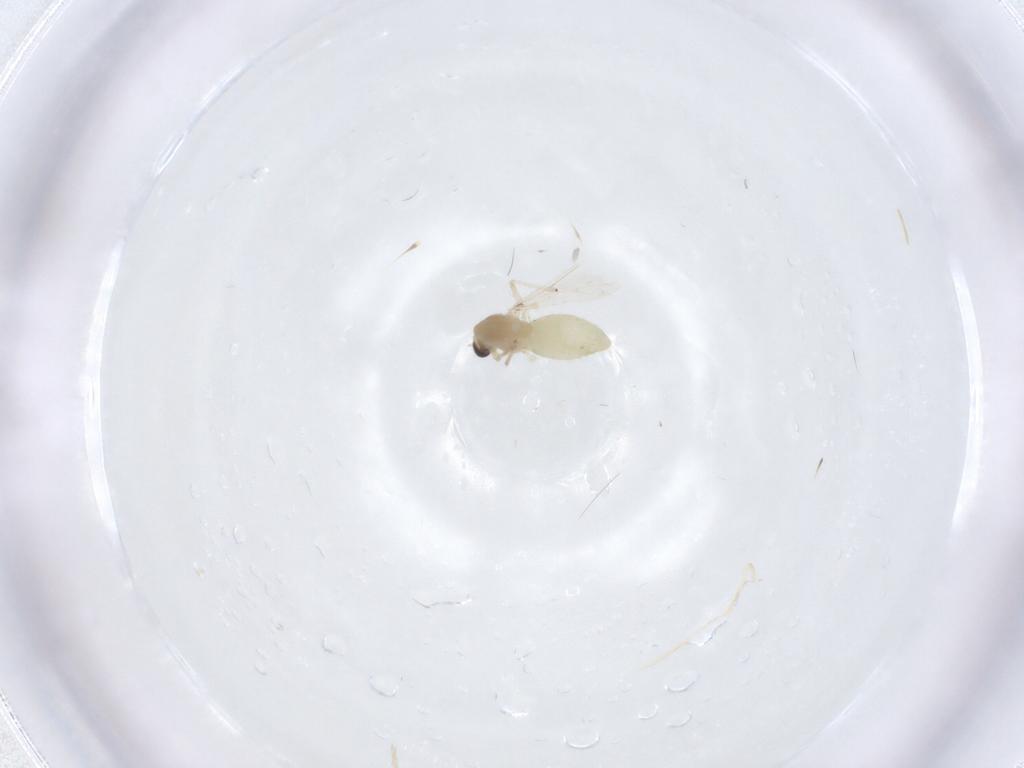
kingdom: Animalia
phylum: Arthropoda
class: Insecta
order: Diptera
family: Chironomidae
